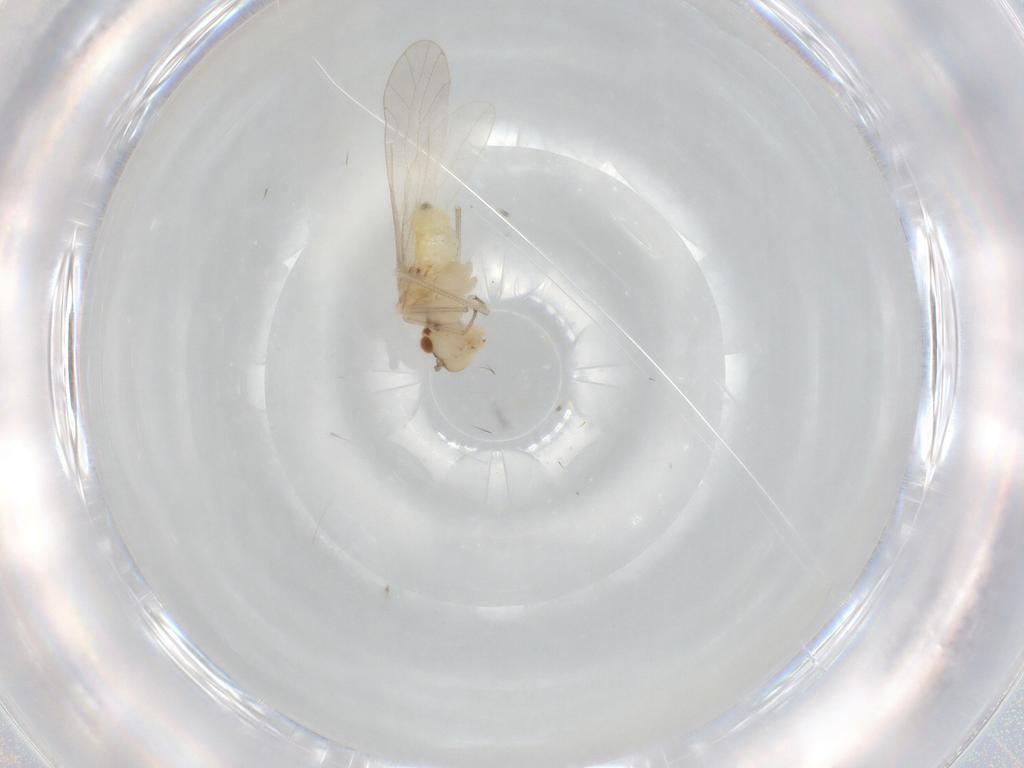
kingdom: Animalia
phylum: Arthropoda
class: Insecta
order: Psocodea
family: Caeciliusidae
